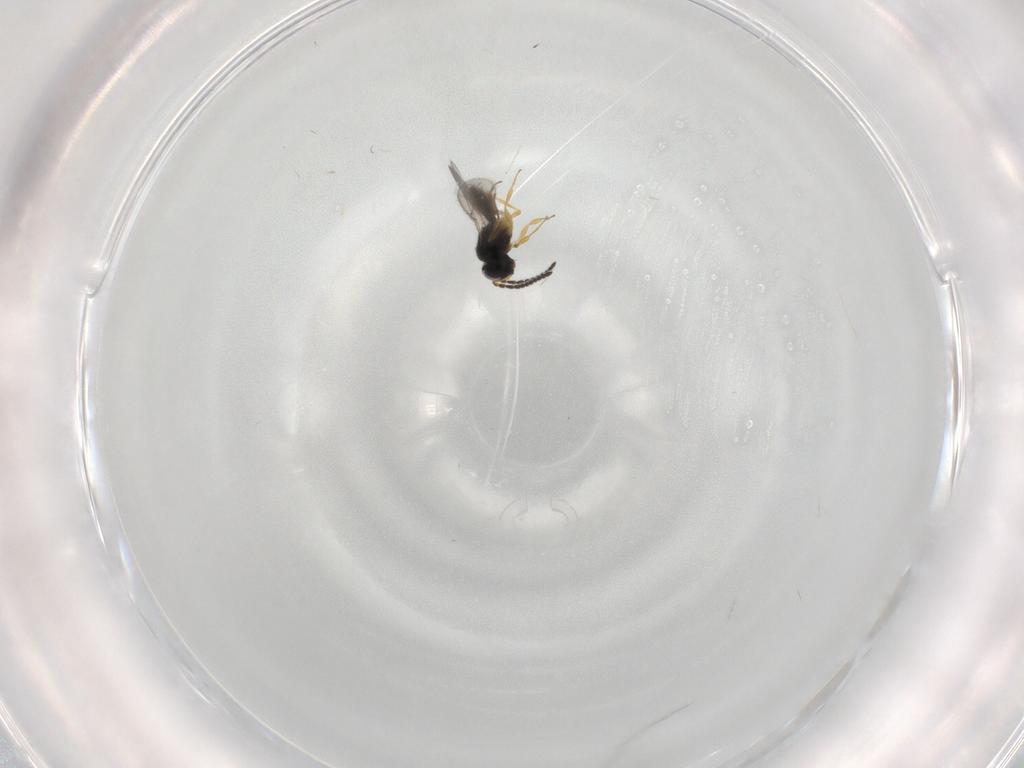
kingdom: Animalia
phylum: Arthropoda
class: Insecta
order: Hymenoptera
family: Scelionidae
